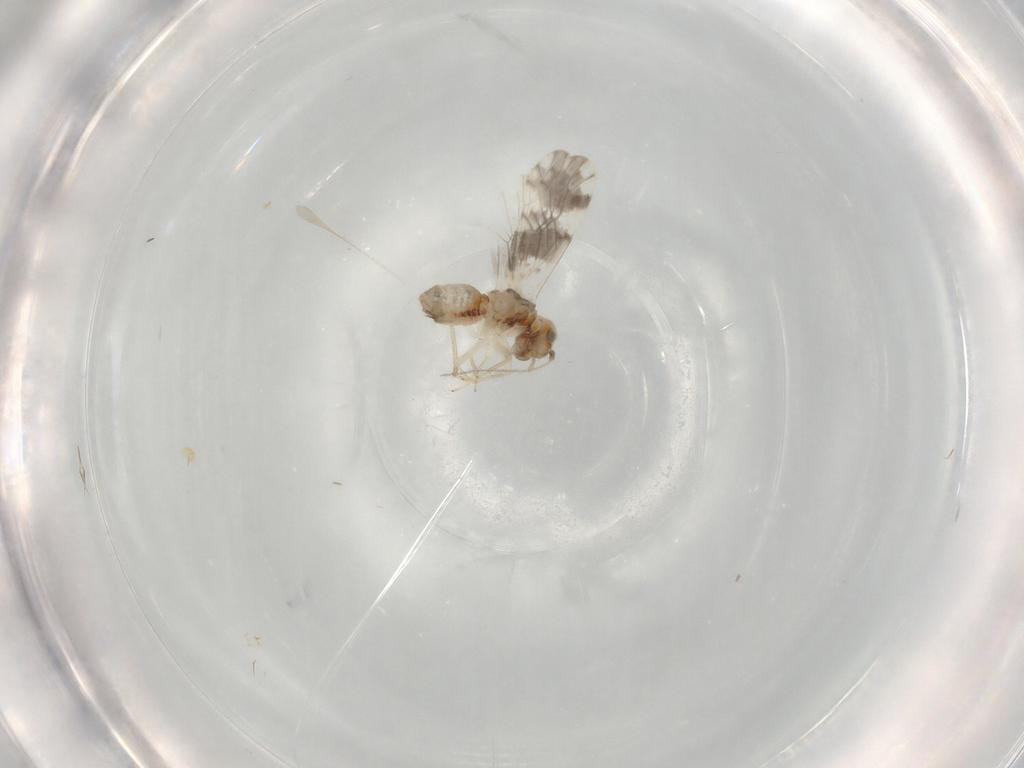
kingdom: Animalia
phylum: Arthropoda
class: Insecta
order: Psocodea
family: Ectopsocidae
